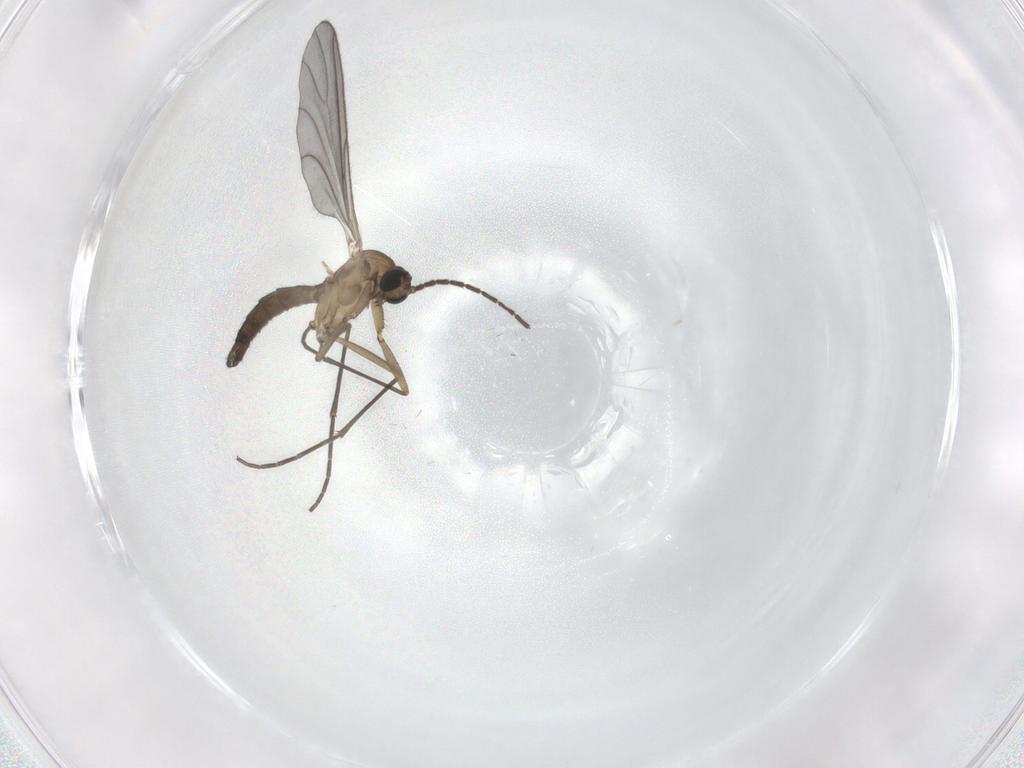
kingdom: Animalia
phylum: Arthropoda
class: Insecta
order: Diptera
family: Sciaridae
